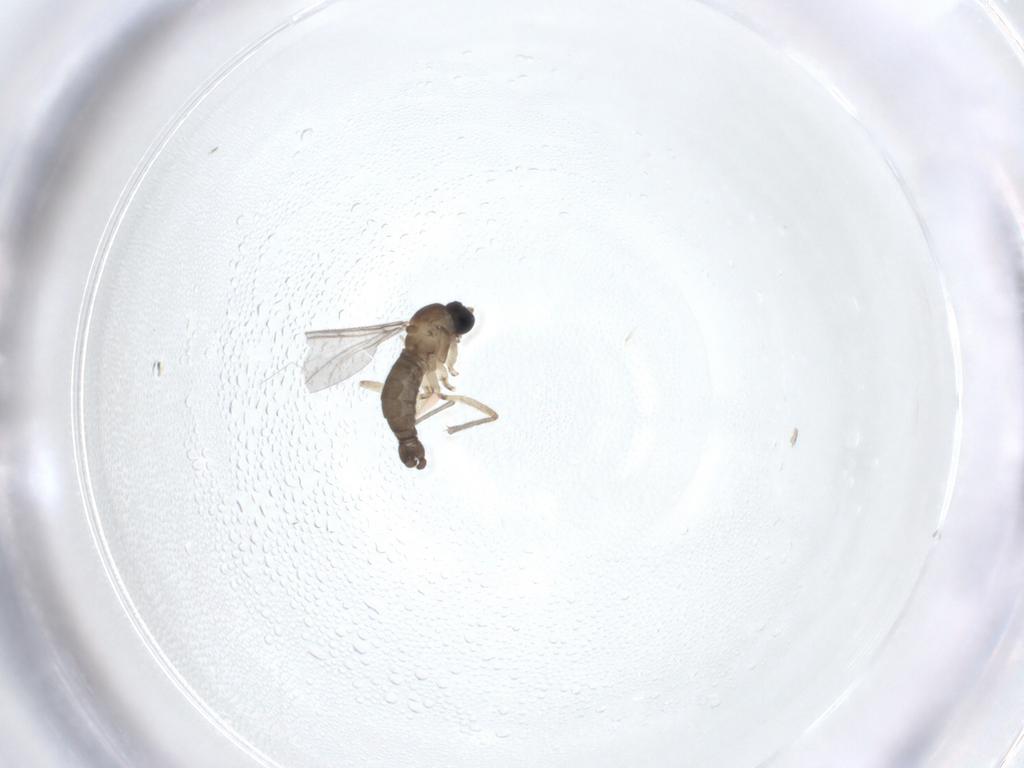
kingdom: Animalia
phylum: Arthropoda
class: Insecta
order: Diptera
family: Sciaridae
